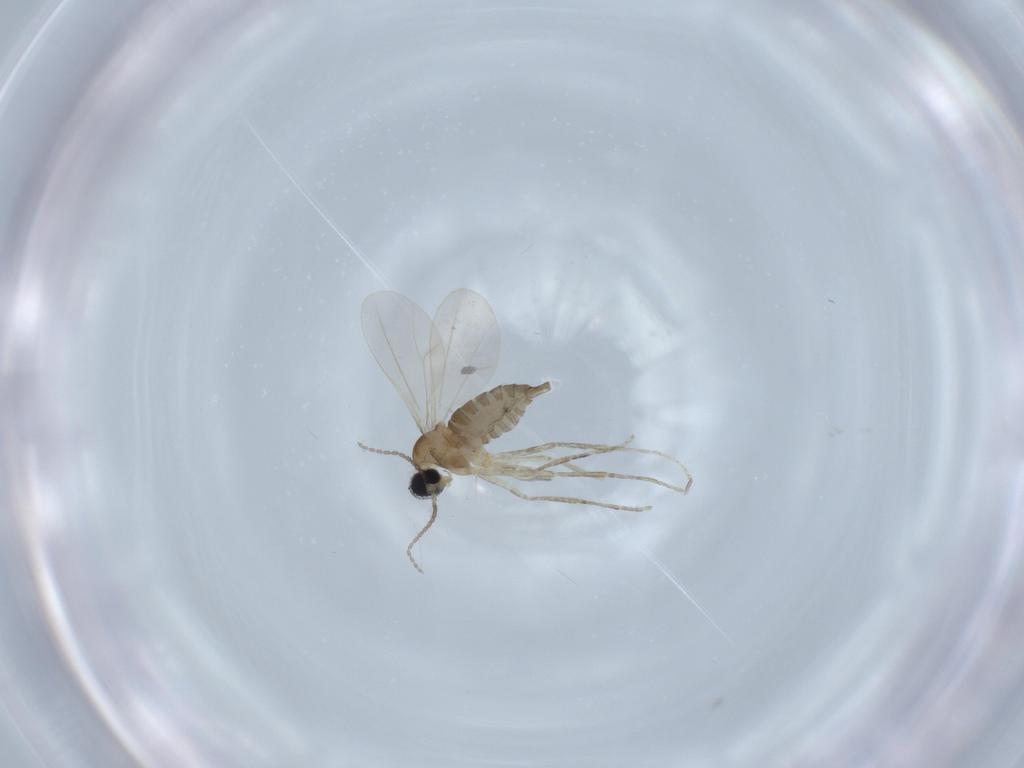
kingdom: Animalia
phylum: Arthropoda
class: Insecta
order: Diptera
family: Cecidomyiidae
